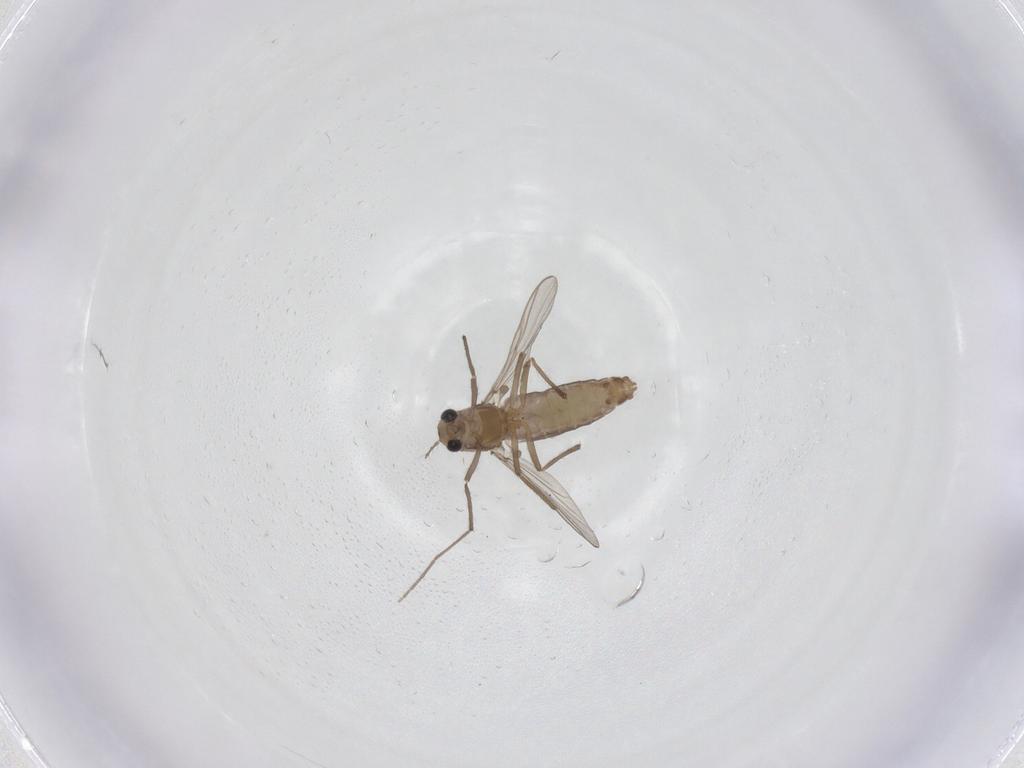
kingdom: Animalia
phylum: Arthropoda
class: Insecta
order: Diptera
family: Chironomidae
